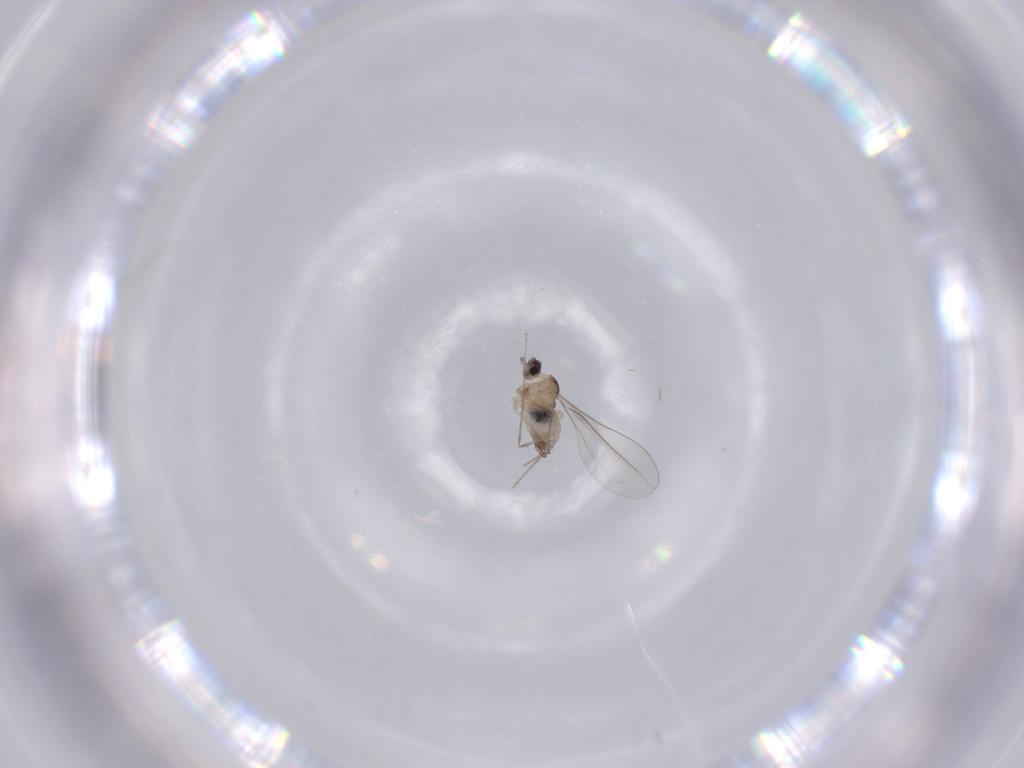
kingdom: Animalia
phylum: Arthropoda
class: Insecta
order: Diptera
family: Cecidomyiidae
